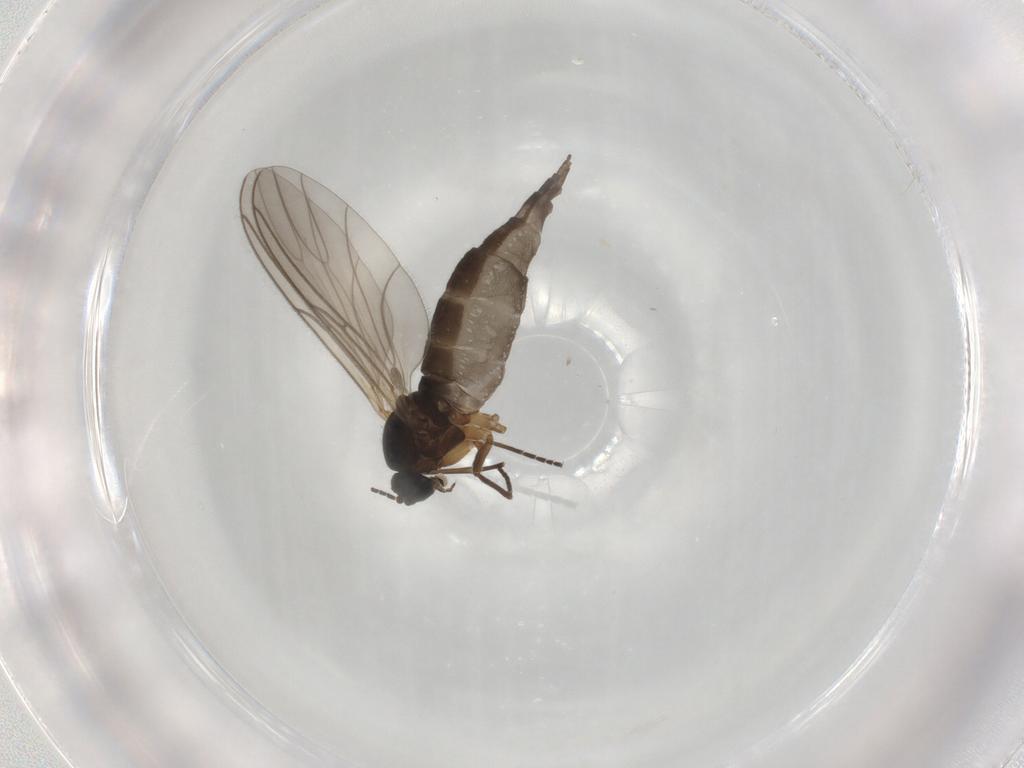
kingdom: Animalia
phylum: Arthropoda
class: Insecta
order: Diptera
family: Sciaridae
